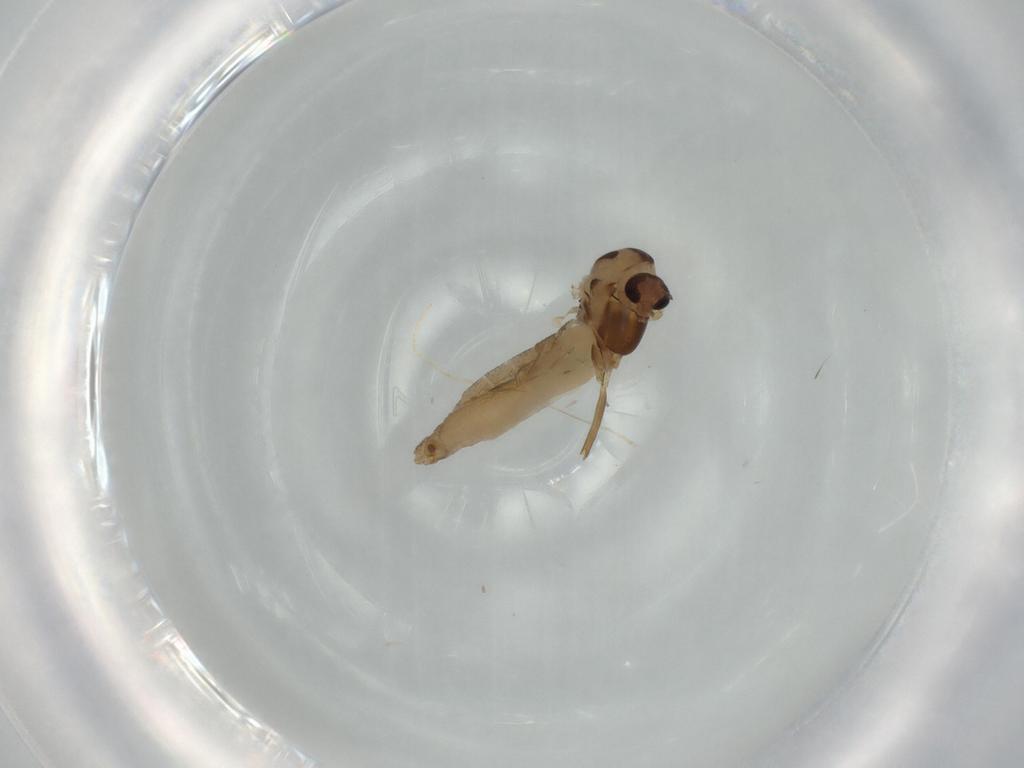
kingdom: Animalia
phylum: Arthropoda
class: Insecta
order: Diptera
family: Chironomidae
